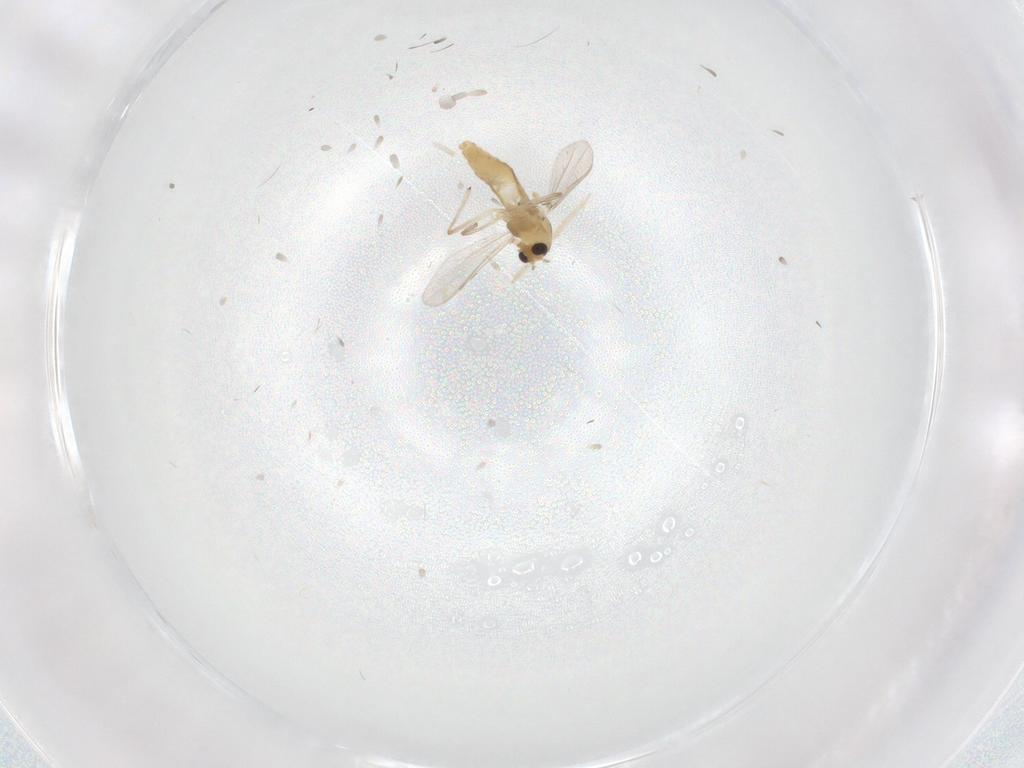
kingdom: Animalia
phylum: Arthropoda
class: Insecta
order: Diptera
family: Chironomidae
